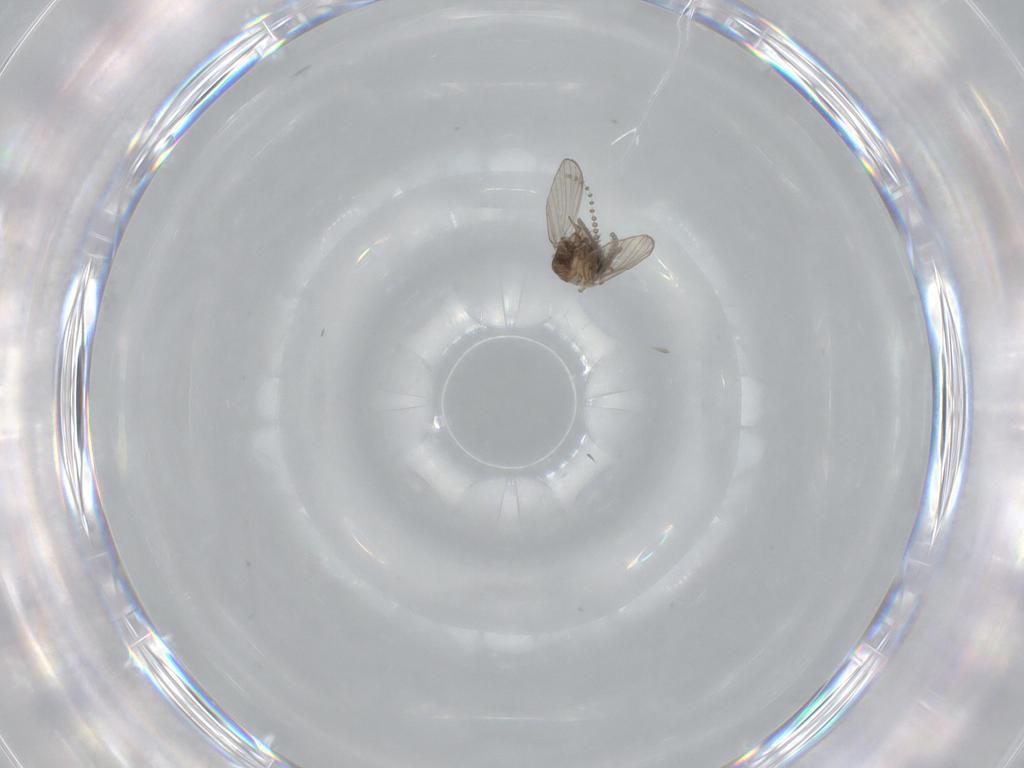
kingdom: Animalia
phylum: Arthropoda
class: Insecta
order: Diptera
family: Psychodidae
